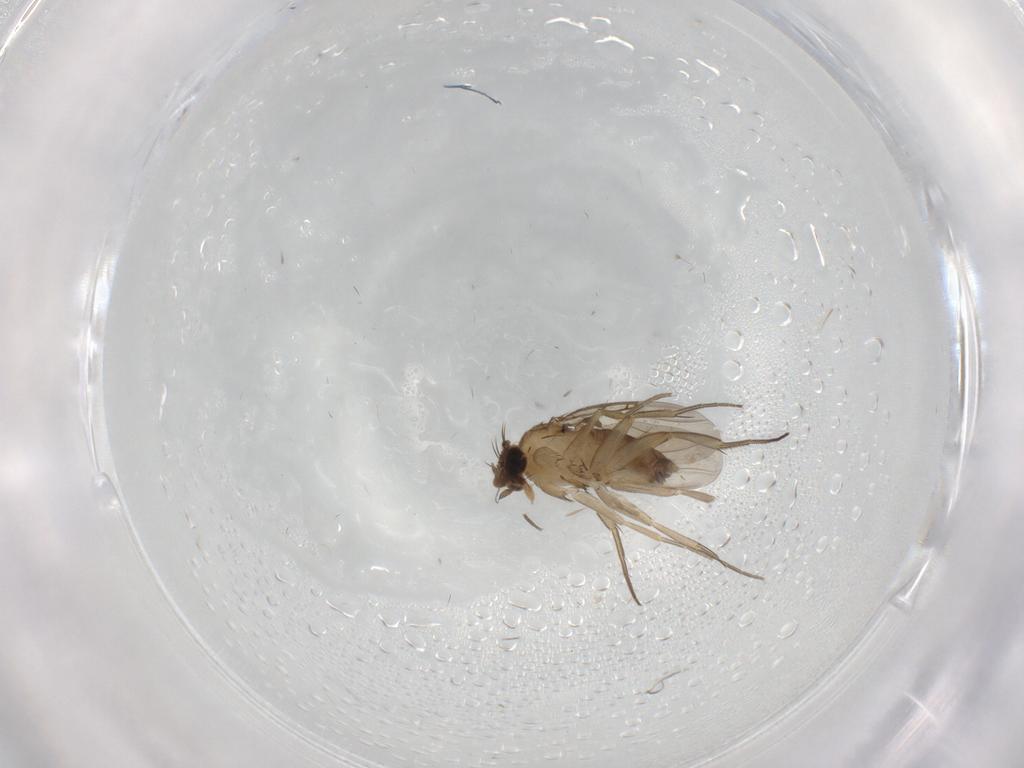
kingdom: Animalia
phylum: Arthropoda
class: Insecta
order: Diptera
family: Phoridae
